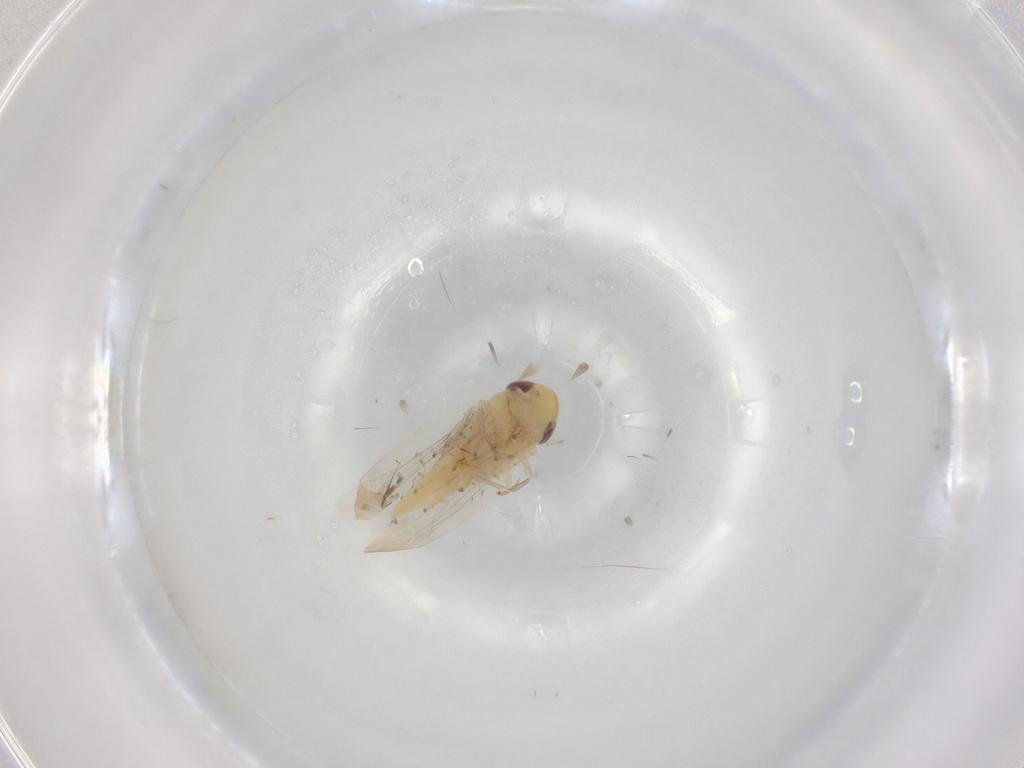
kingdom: Animalia
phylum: Arthropoda
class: Insecta
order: Hemiptera
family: Cicadellidae
